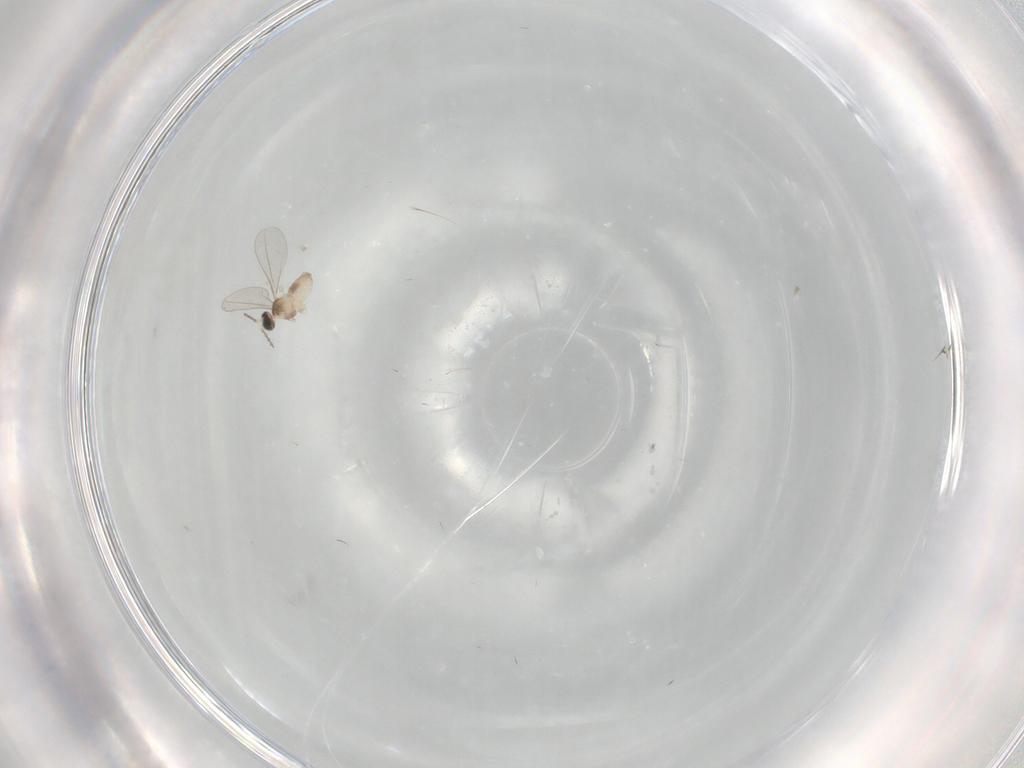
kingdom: Animalia
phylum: Arthropoda
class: Insecta
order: Diptera
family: Cecidomyiidae
